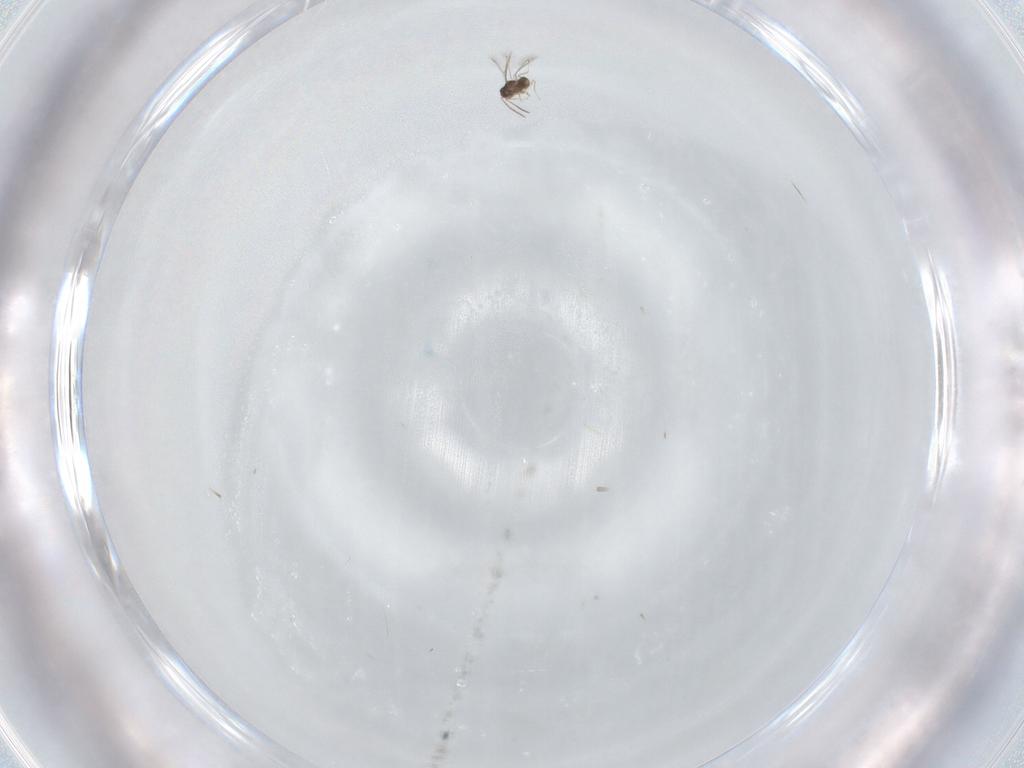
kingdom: Animalia
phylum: Arthropoda
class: Insecta
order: Hymenoptera
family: Mymaridae
